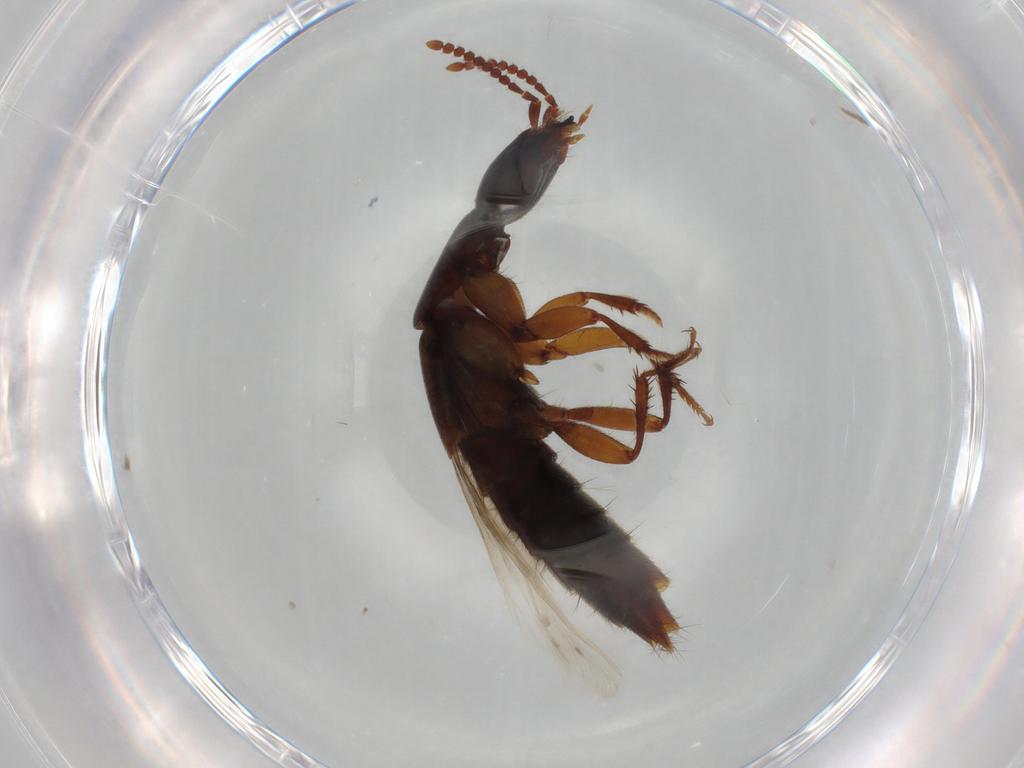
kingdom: Animalia
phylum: Arthropoda
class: Insecta
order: Coleoptera
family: Staphylinidae
